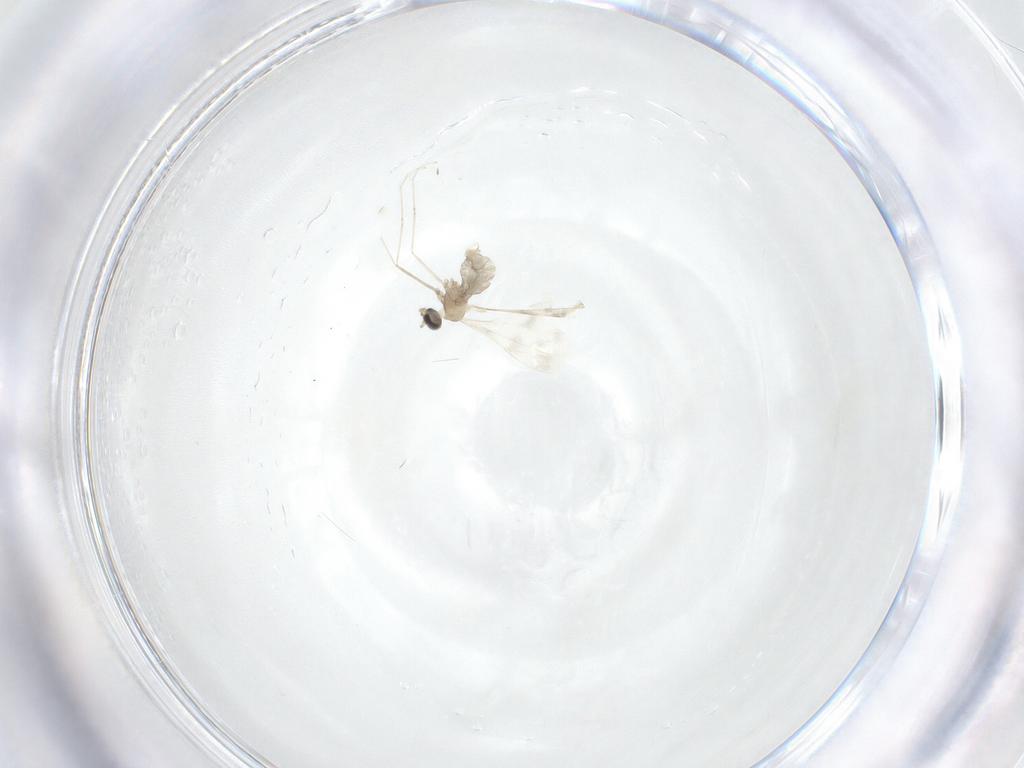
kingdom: Animalia
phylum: Arthropoda
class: Insecta
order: Diptera
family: Cecidomyiidae
